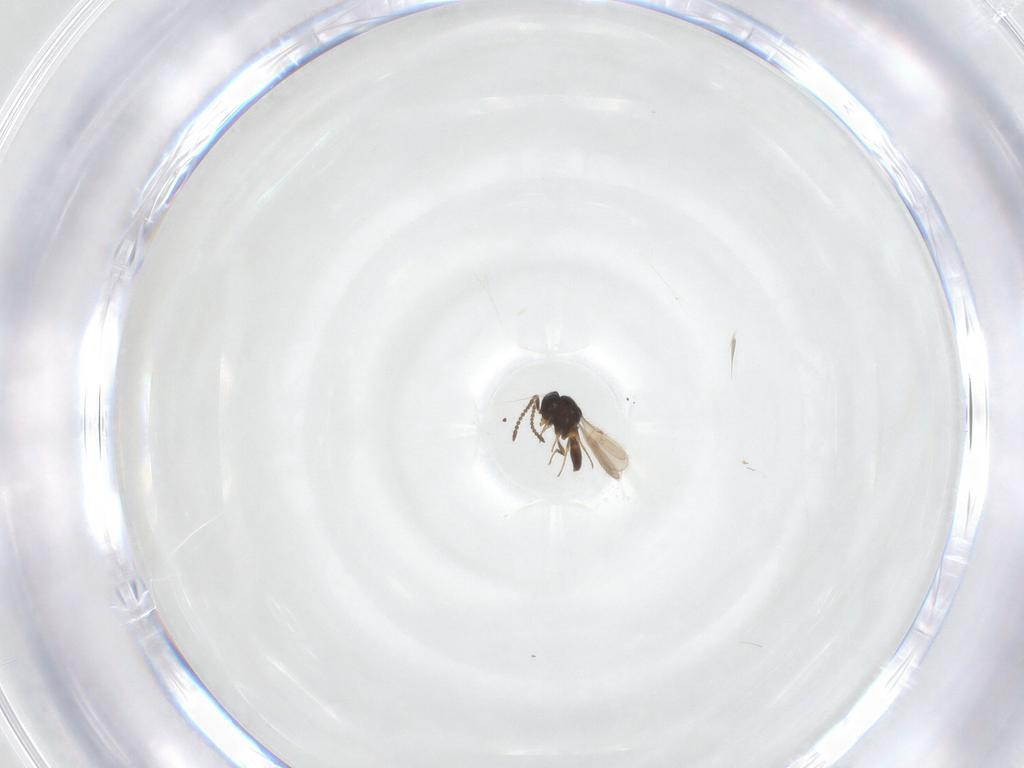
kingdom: Animalia
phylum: Arthropoda
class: Insecta
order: Hymenoptera
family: Scelionidae
